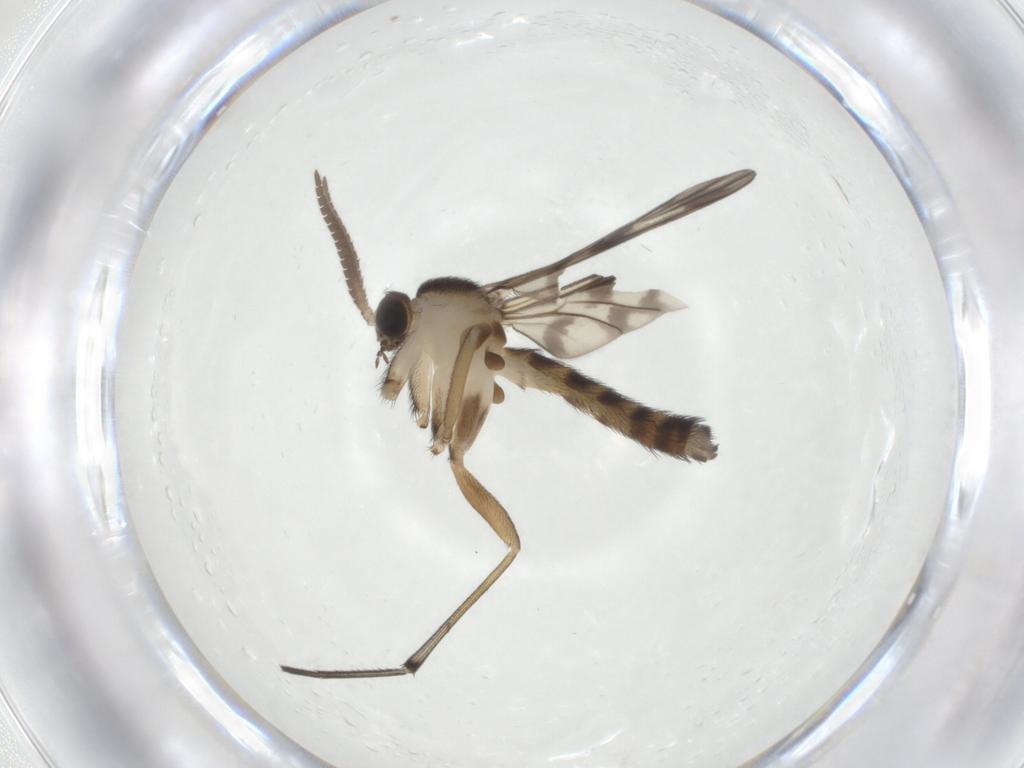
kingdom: Animalia
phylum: Arthropoda
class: Insecta
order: Diptera
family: Keroplatidae
